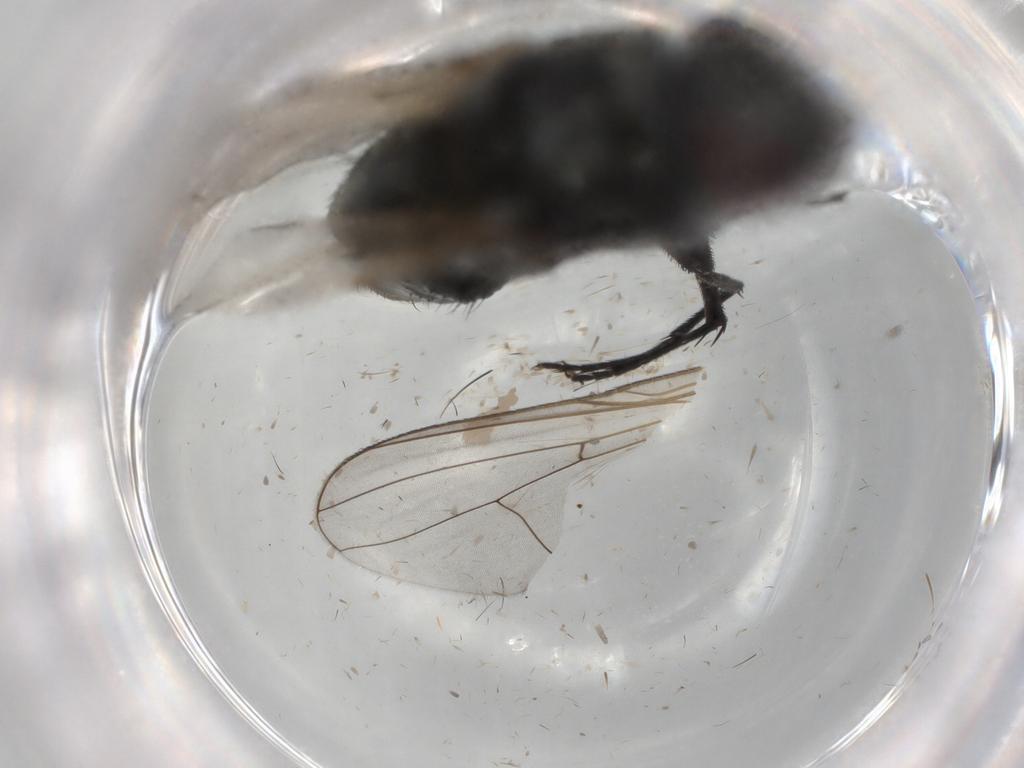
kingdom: Animalia
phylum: Arthropoda
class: Insecta
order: Diptera
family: Muscidae
